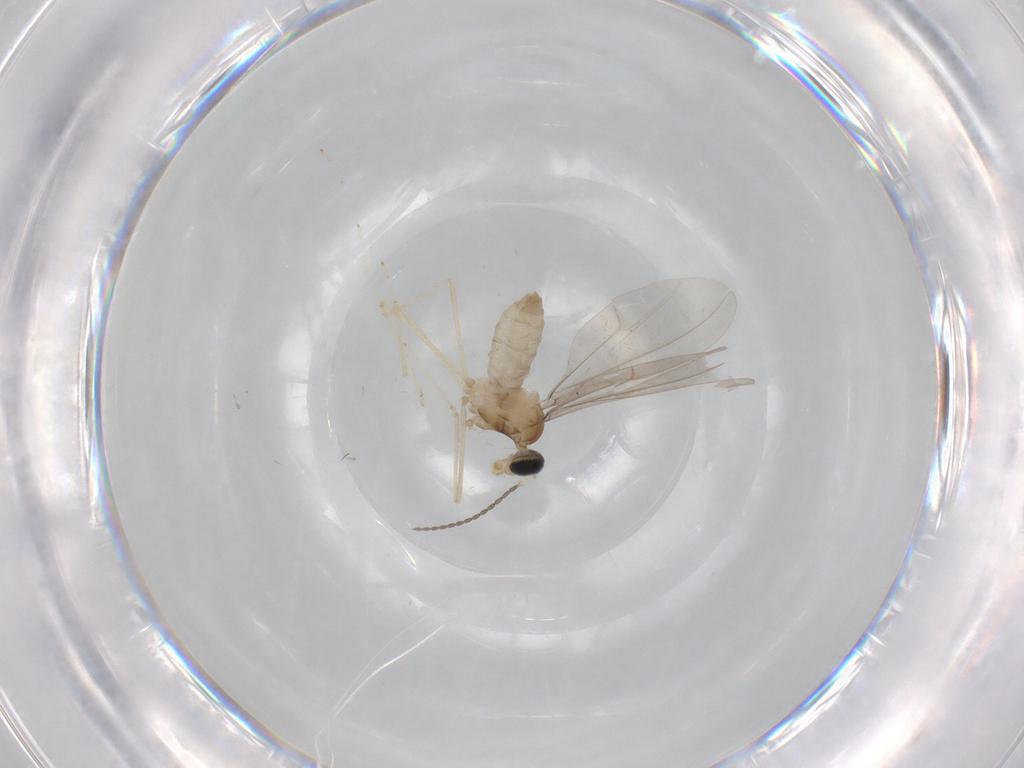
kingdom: Animalia
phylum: Arthropoda
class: Insecta
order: Diptera
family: Cecidomyiidae
